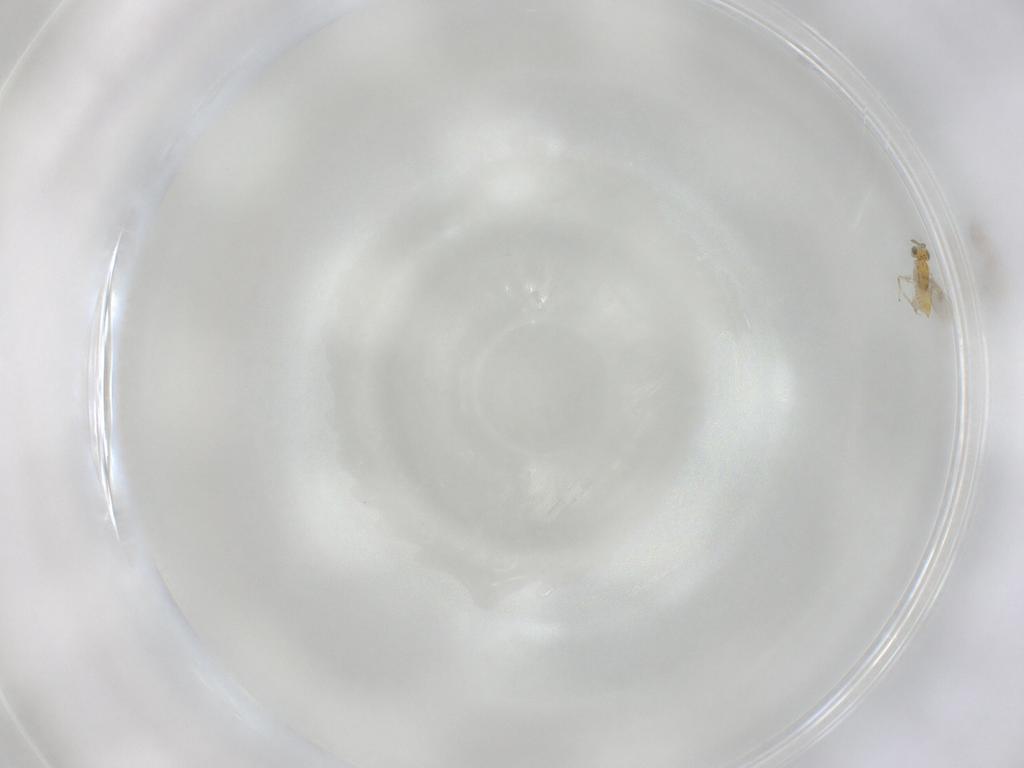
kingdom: Animalia
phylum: Arthropoda
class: Insecta
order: Hymenoptera
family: Aphelinidae
